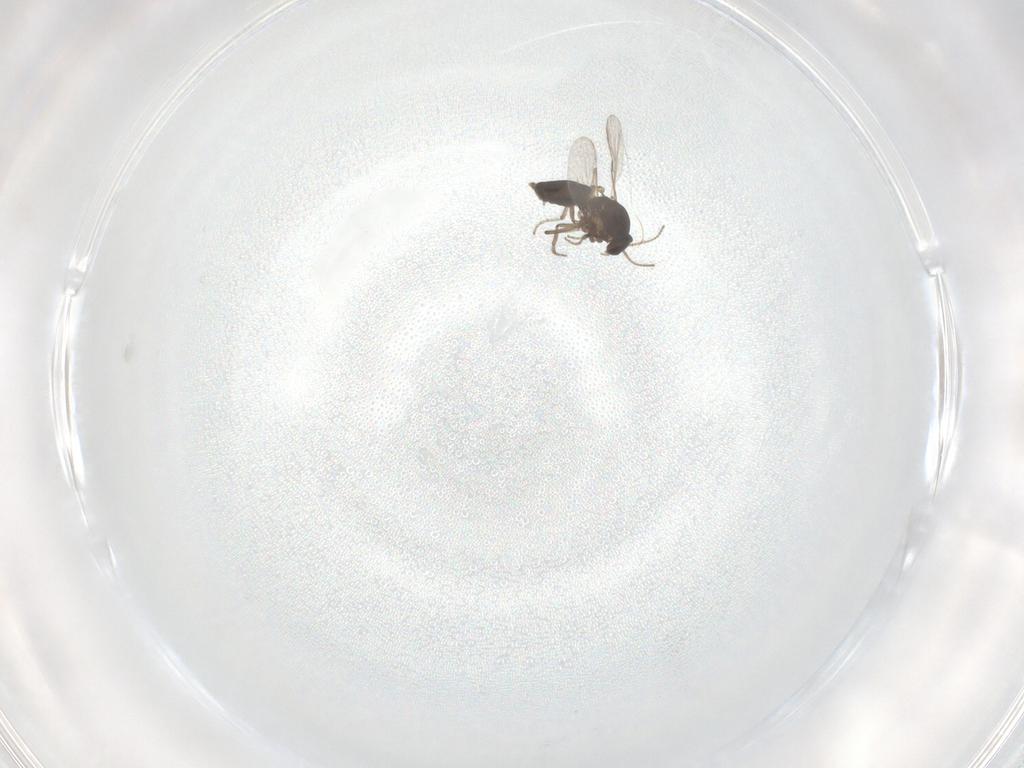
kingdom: Animalia
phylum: Arthropoda
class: Insecta
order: Diptera
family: Ceratopogonidae
